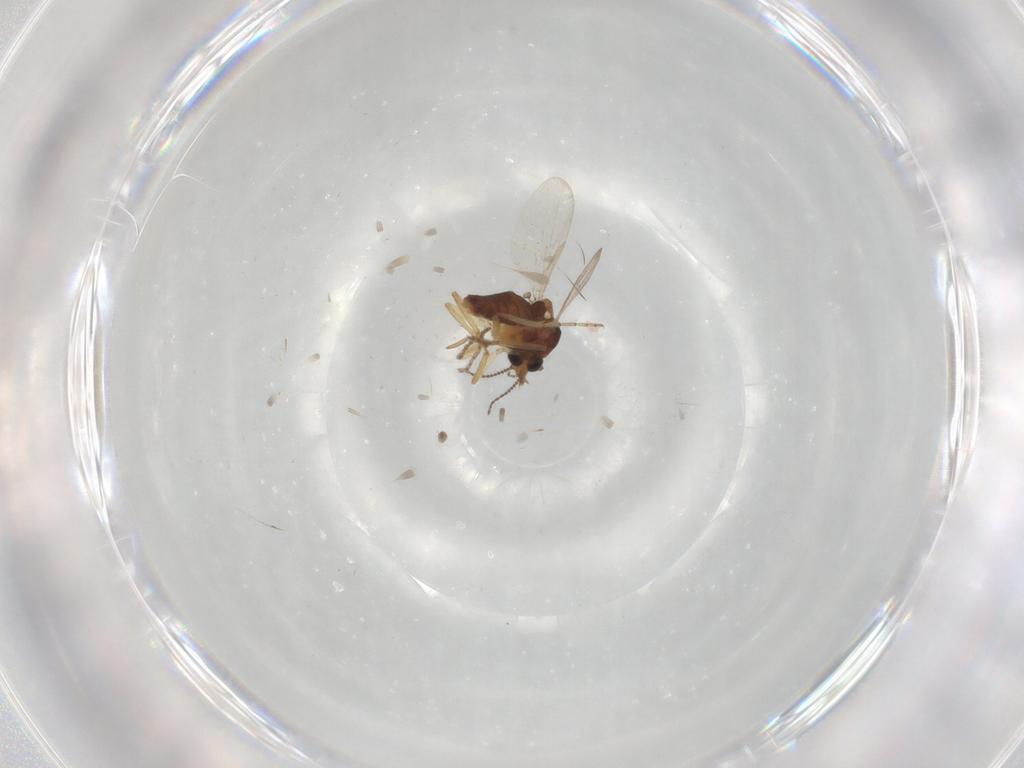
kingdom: Animalia
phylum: Arthropoda
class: Insecta
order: Diptera
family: Ceratopogonidae
